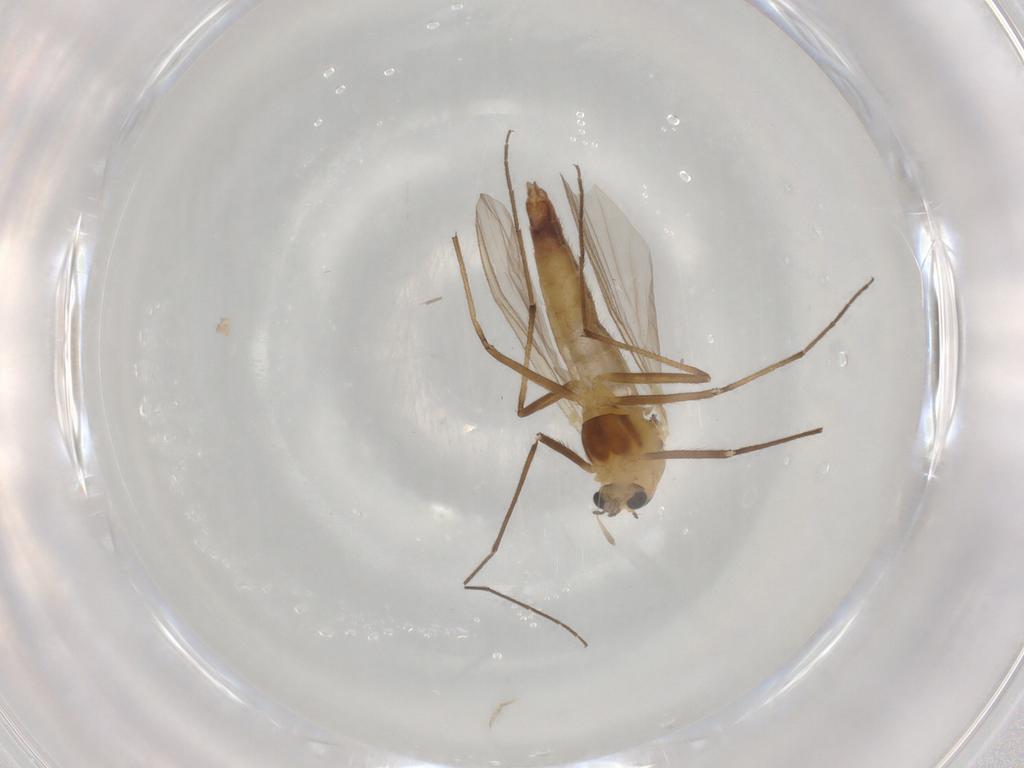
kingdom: Animalia
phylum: Arthropoda
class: Insecta
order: Diptera
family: Chironomidae
